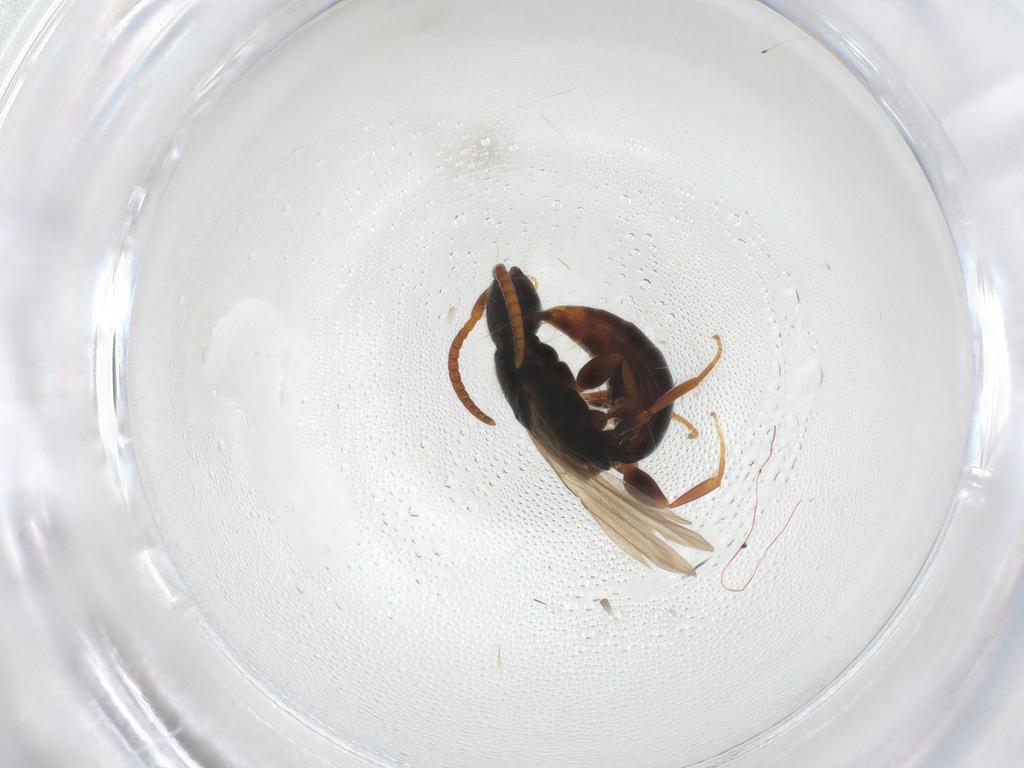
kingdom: Animalia
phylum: Arthropoda
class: Insecta
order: Hymenoptera
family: Bethylidae
